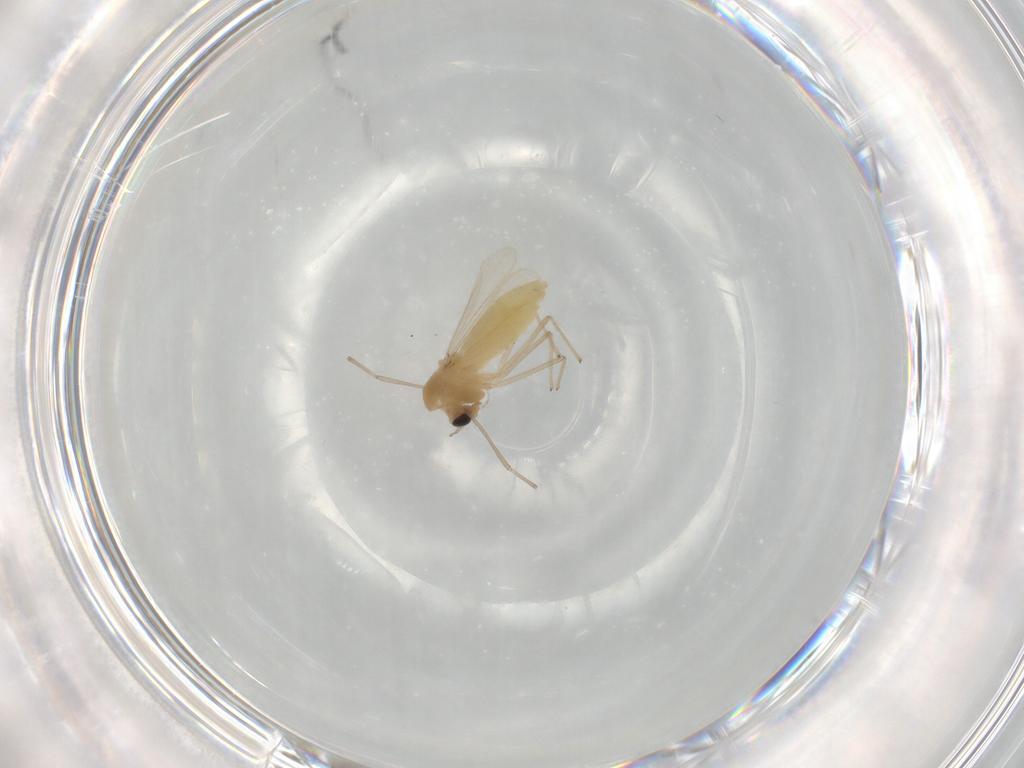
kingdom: Animalia
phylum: Arthropoda
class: Insecta
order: Diptera
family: Chironomidae
